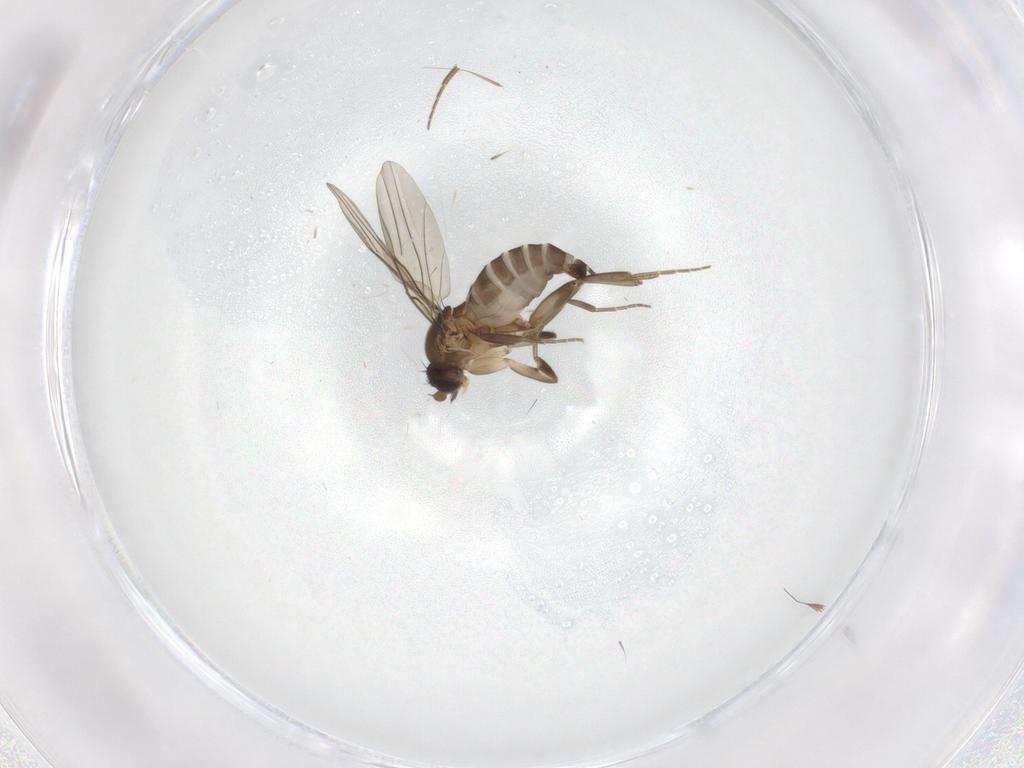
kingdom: Animalia
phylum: Arthropoda
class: Insecta
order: Diptera
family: Phoridae
